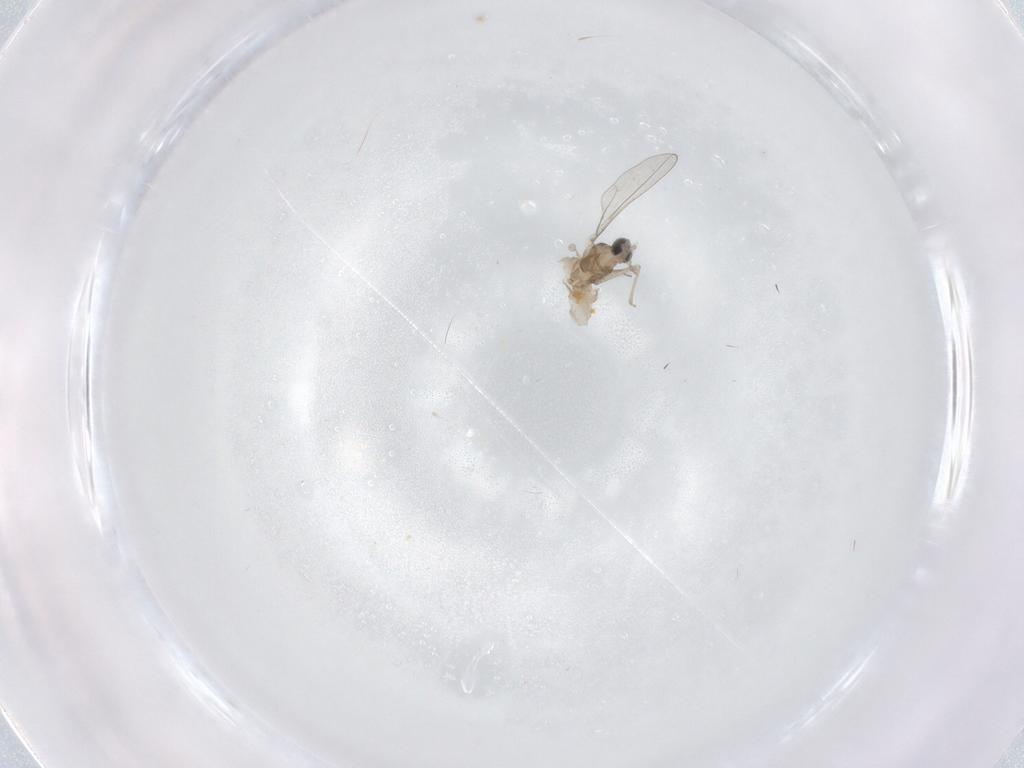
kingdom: Animalia
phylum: Arthropoda
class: Insecta
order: Diptera
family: Cecidomyiidae
